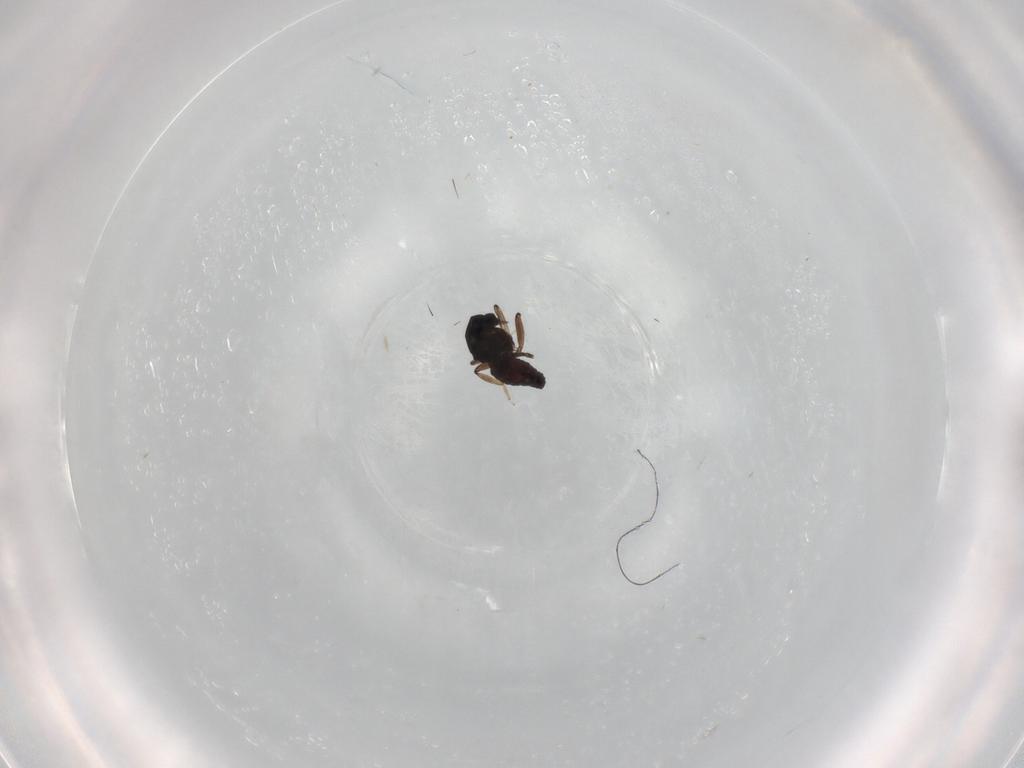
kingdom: Animalia
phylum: Arthropoda
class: Insecta
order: Diptera
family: Ceratopogonidae
